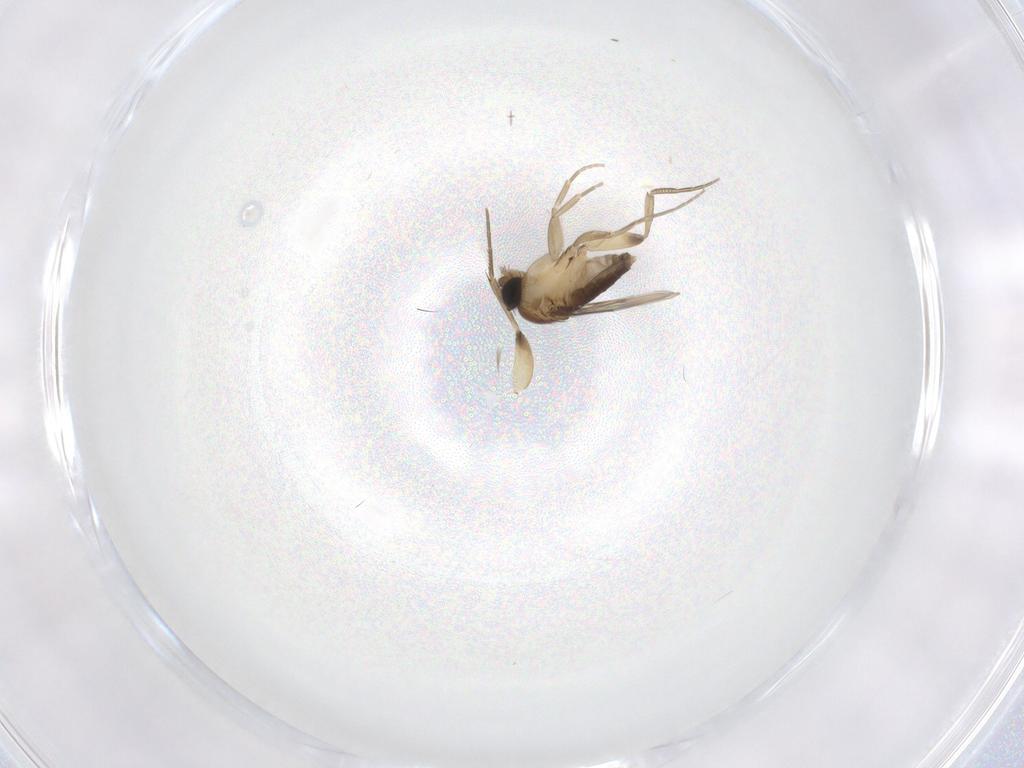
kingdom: Animalia
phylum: Arthropoda
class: Insecta
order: Diptera
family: Phoridae
